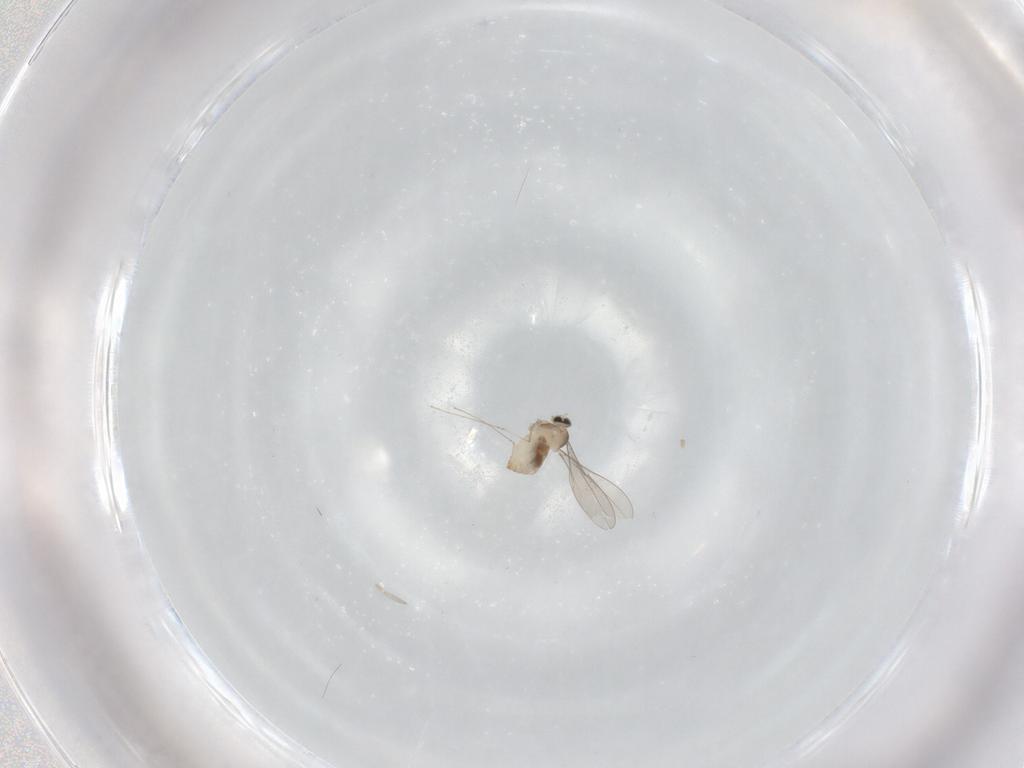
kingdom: Animalia
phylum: Arthropoda
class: Insecta
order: Diptera
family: Cecidomyiidae
